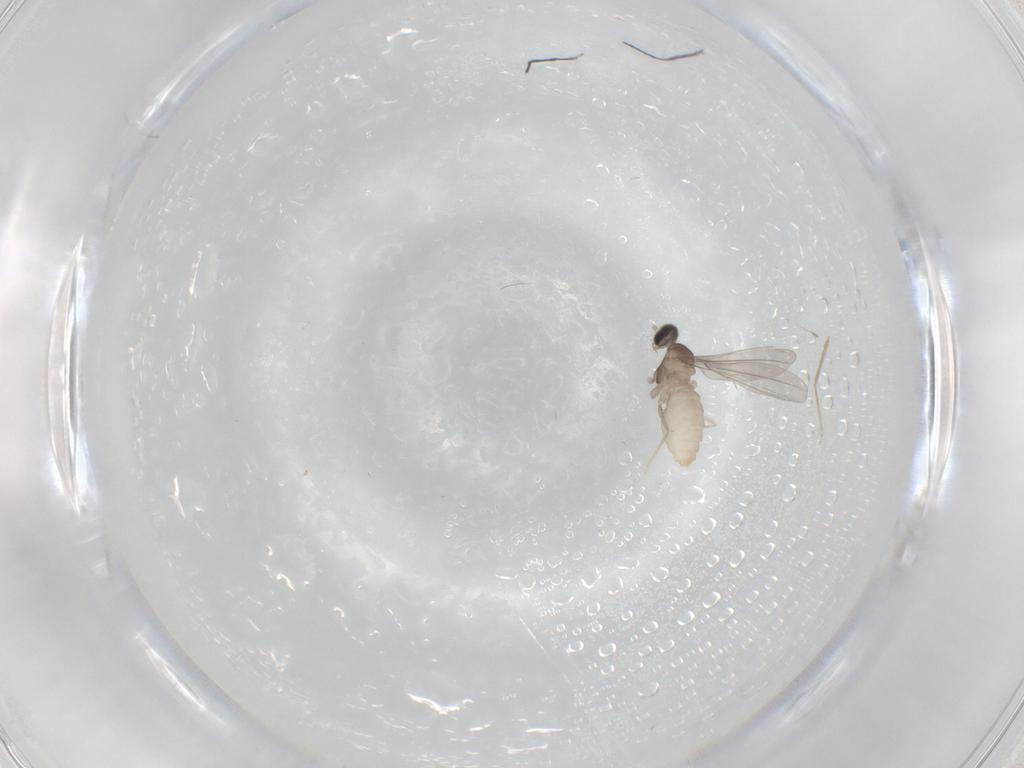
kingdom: Animalia
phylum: Arthropoda
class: Insecta
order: Diptera
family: Cecidomyiidae
